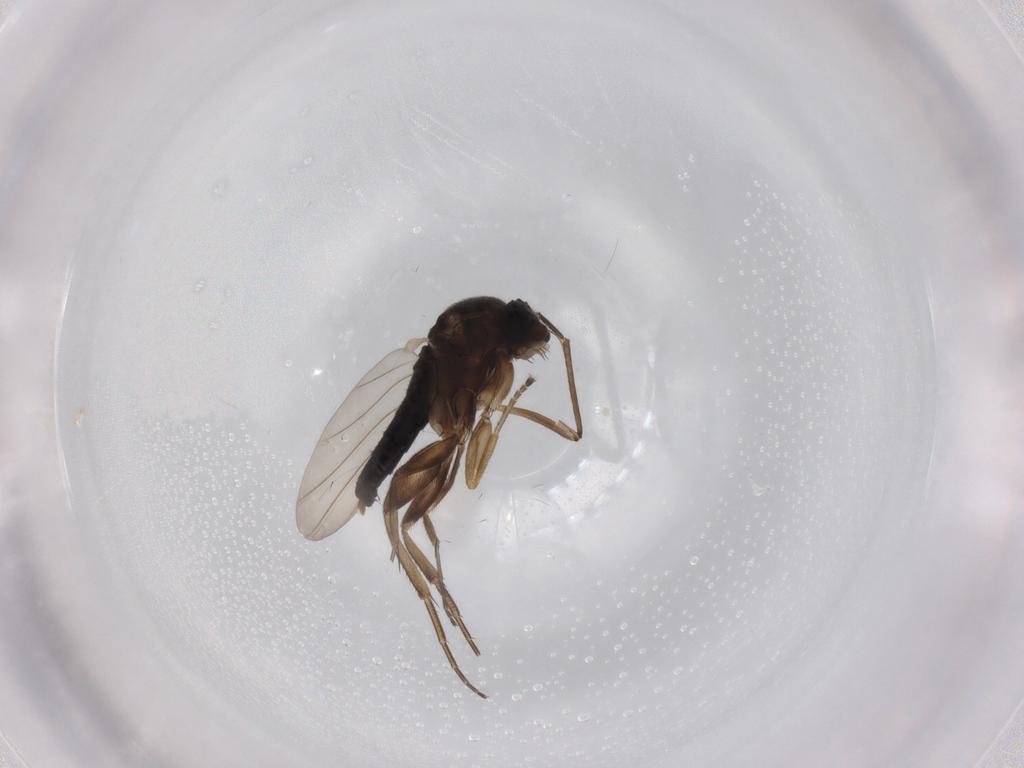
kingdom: Animalia
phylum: Arthropoda
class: Insecta
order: Diptera
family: Phoridae
